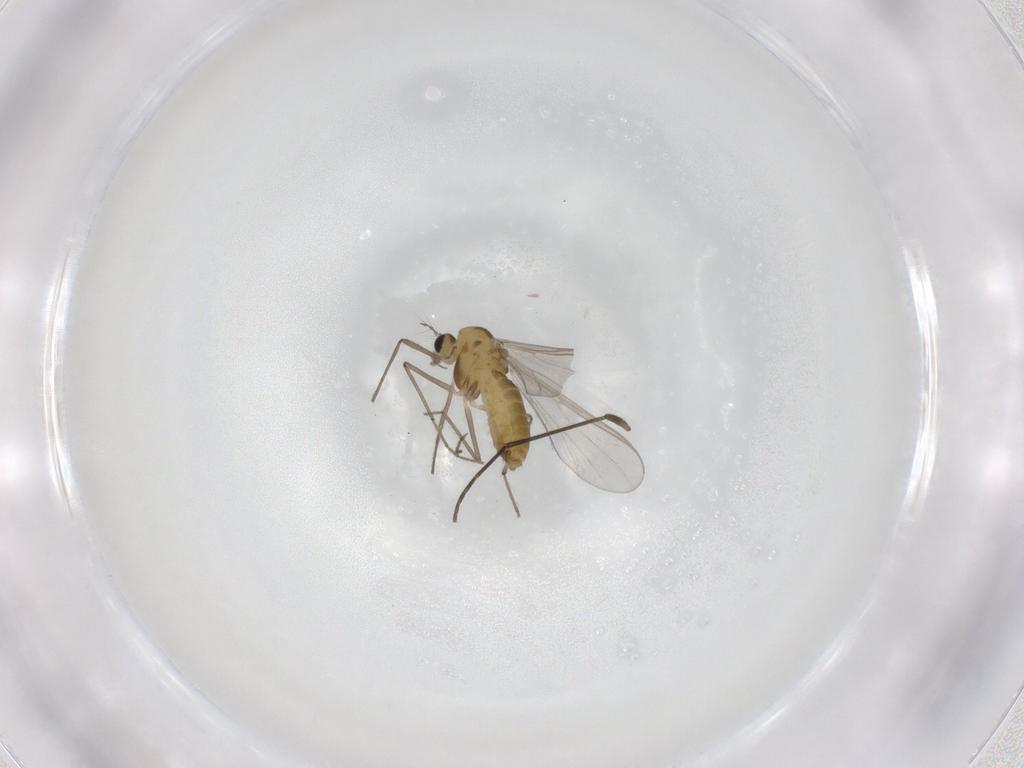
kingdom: Animalia
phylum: Arthropoda
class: Insecta
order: Diptera
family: Chironomidae
